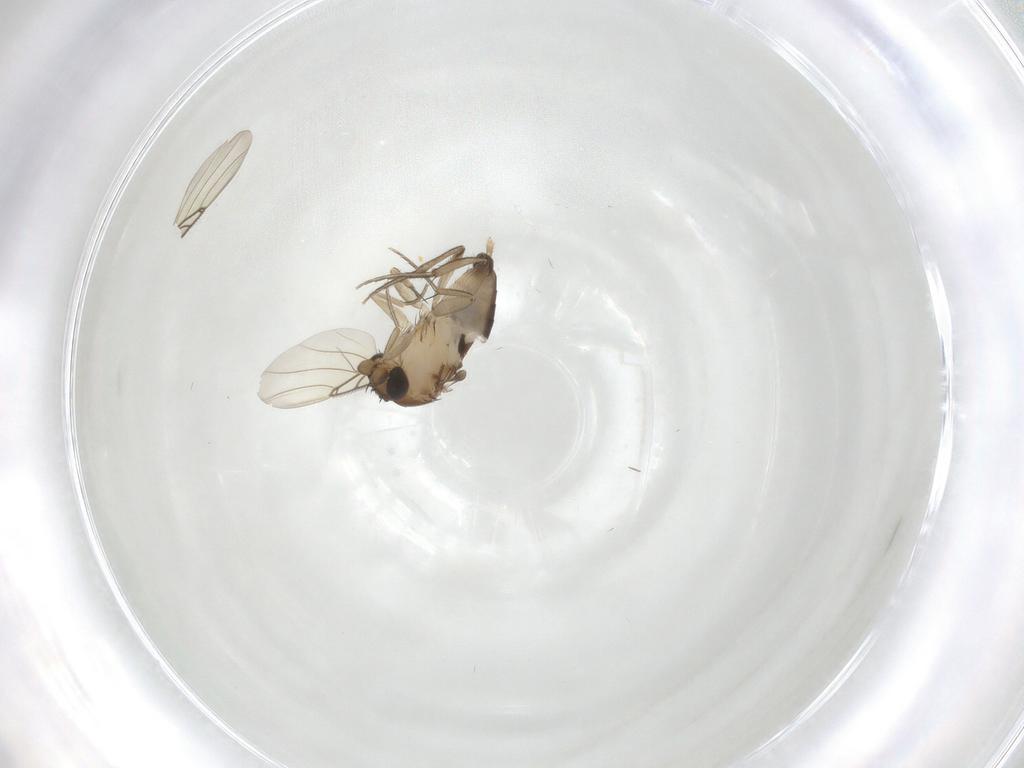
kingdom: Animalia
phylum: Arthropoda
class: Insecta
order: Diptera
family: Phoridae
